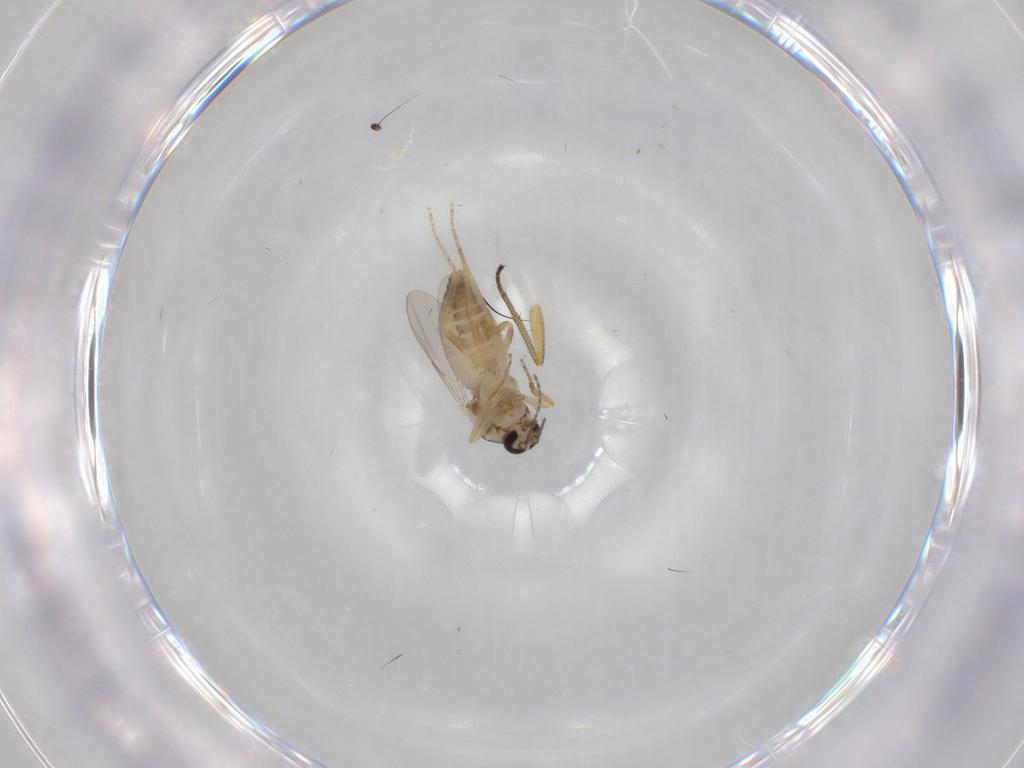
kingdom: Animalia
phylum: Arthropoda
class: Insecta
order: Diptera
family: Ceratopogonidae
